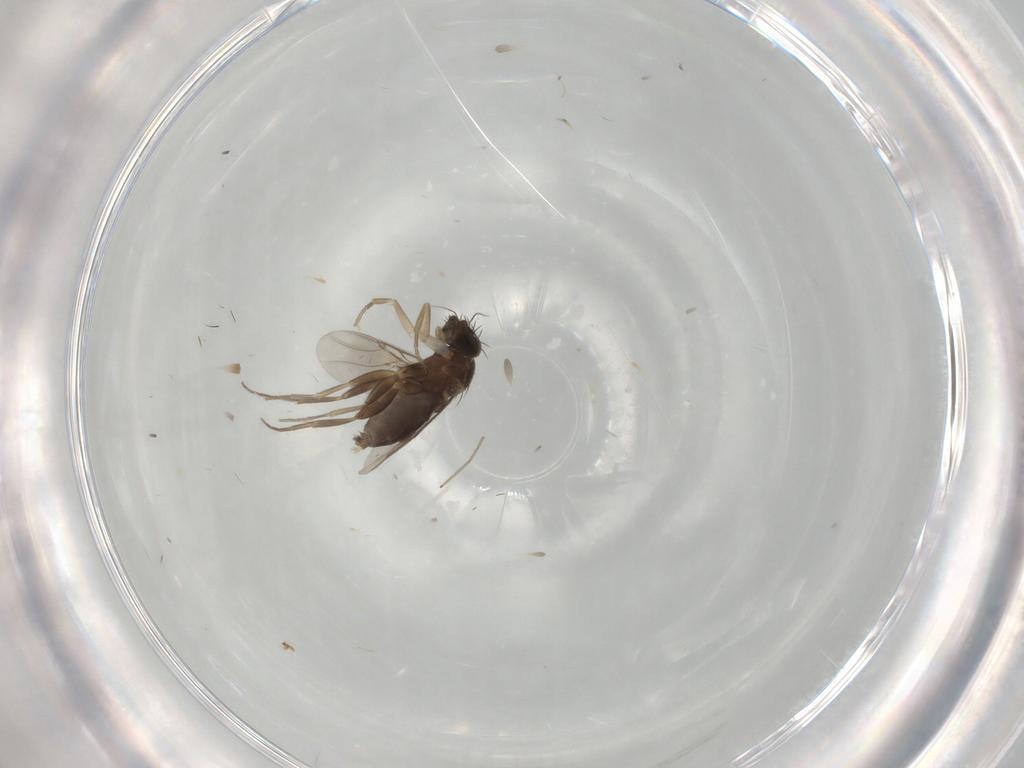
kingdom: Animalia
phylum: Arthropoda
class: Insecta
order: Diptera
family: Phoridae
